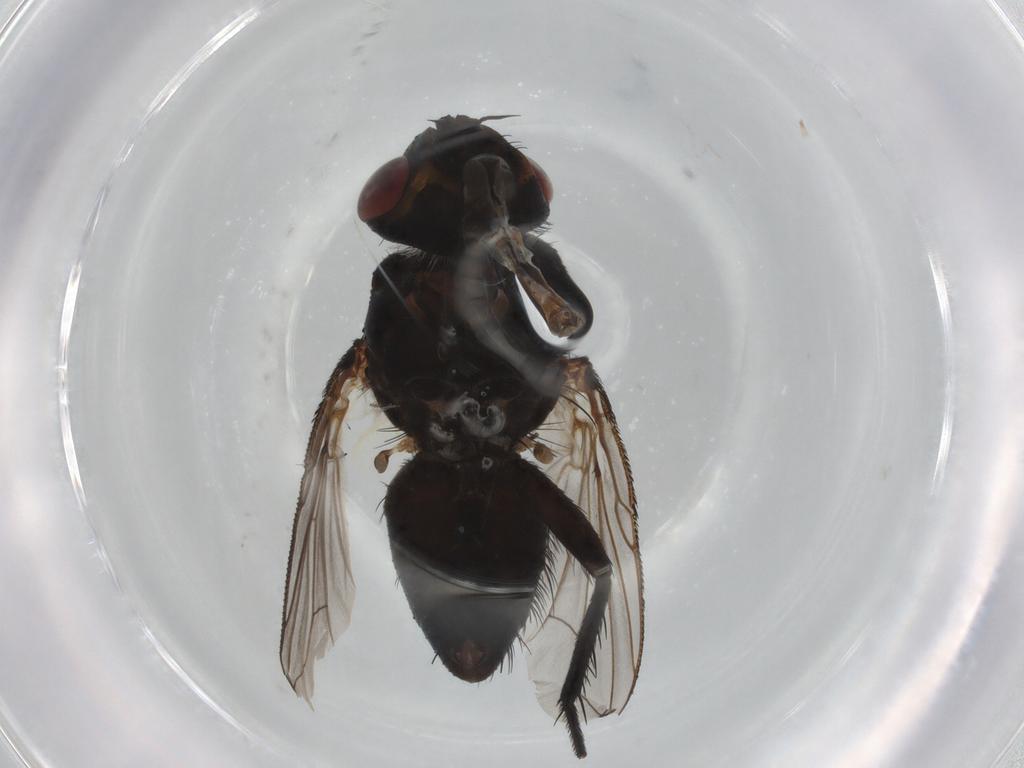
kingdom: Animalia
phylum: Arthropoda
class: Insecta
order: Diptera
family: Tachinidae
